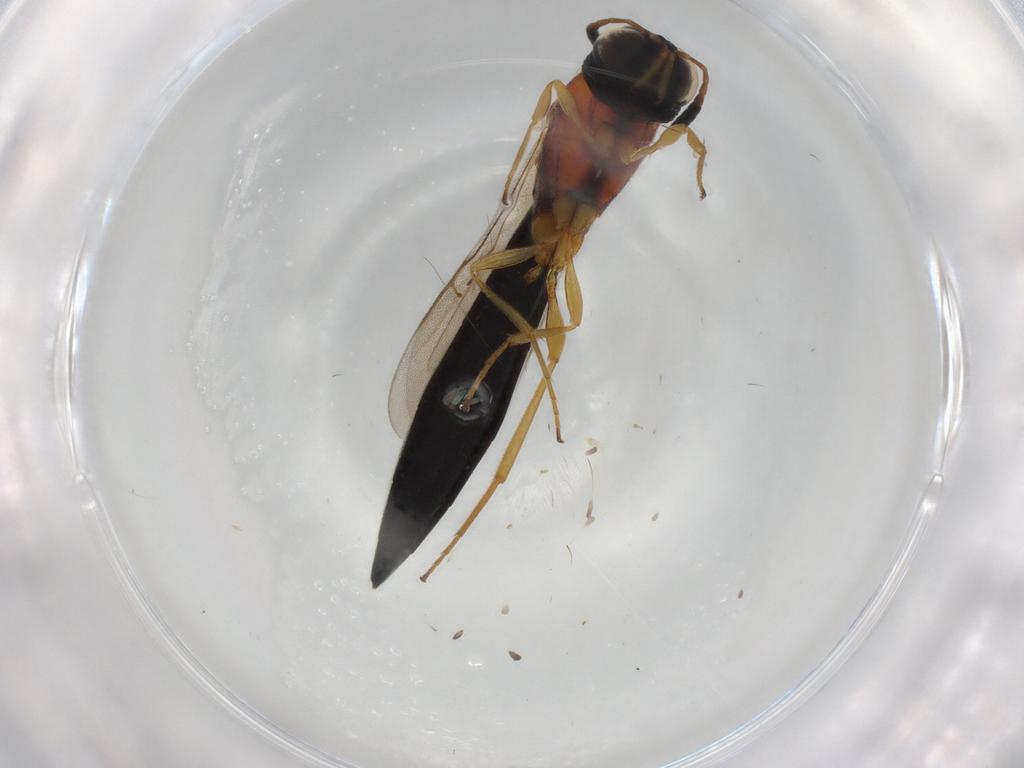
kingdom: Animalia
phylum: Arthropoda
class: Insecta
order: Hymenoptera
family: Scelionidae
